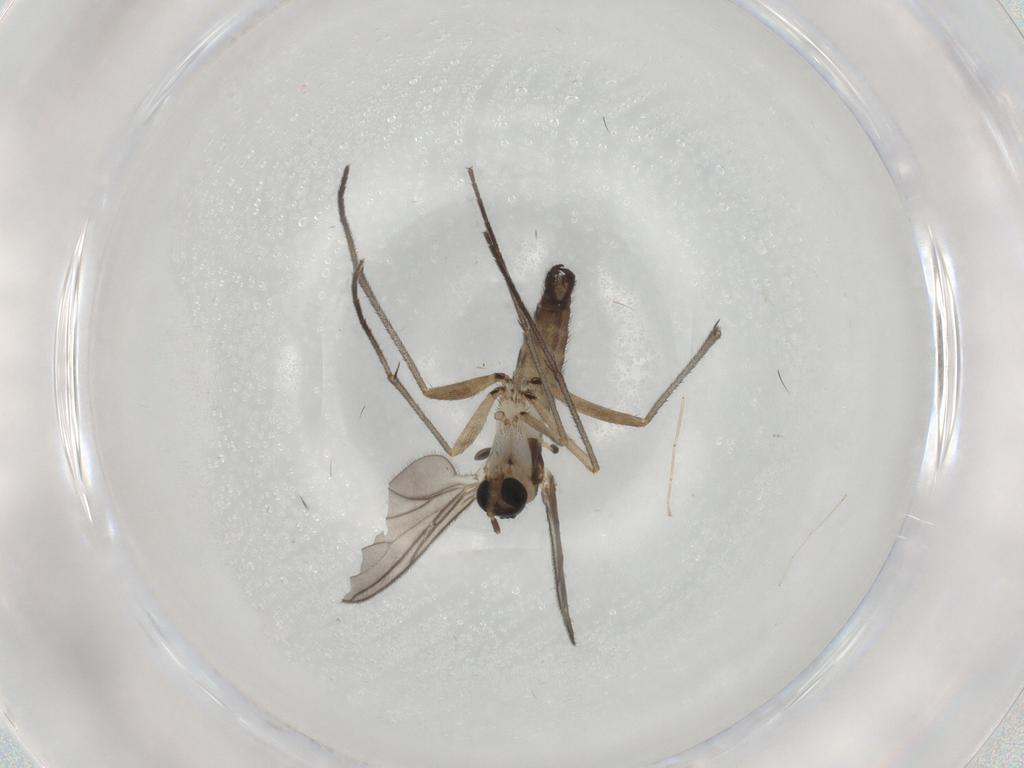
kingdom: Animalia
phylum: Arthropoda
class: Insecta
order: Diptera
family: Sciaridae
